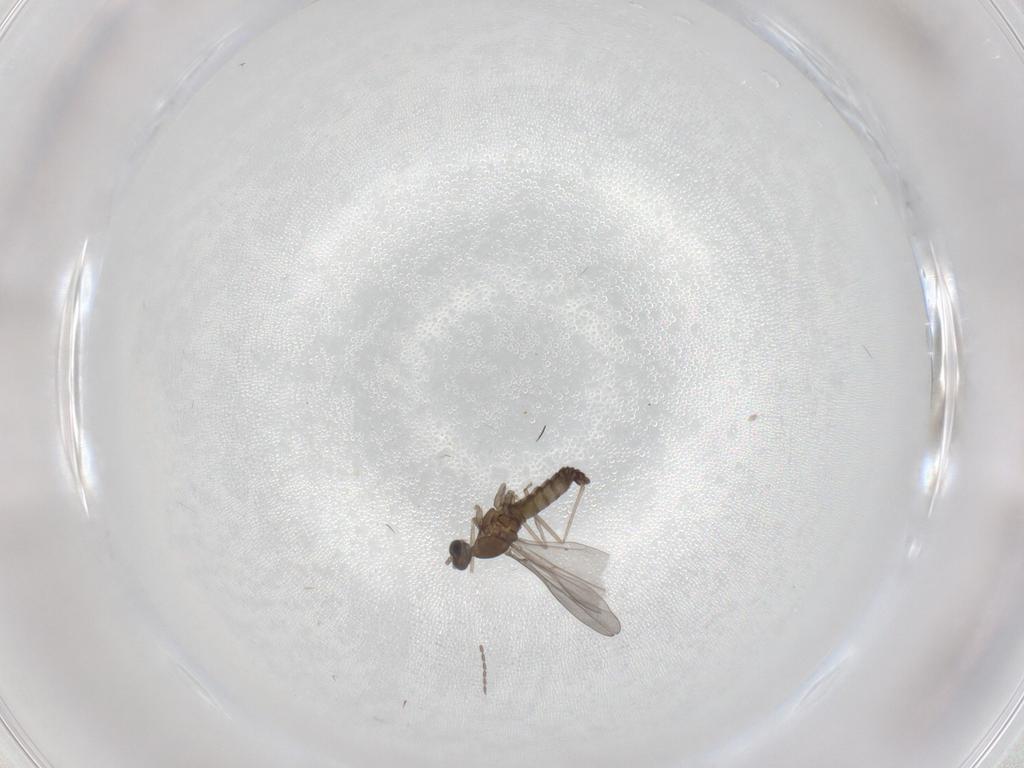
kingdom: Animalia
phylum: Arthropoda
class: Insecta
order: Diptera
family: Cecidomyiidae
